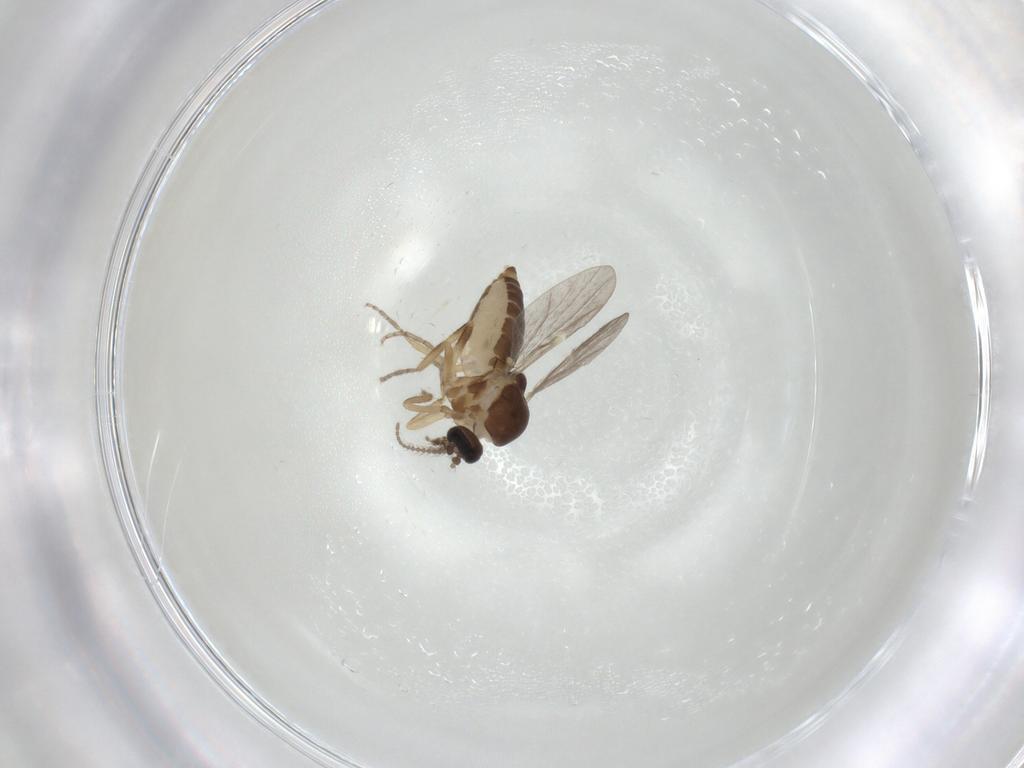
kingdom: Animalia
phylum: Arthropoda
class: Insecta
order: Diptera
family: Ceratopogonidae
